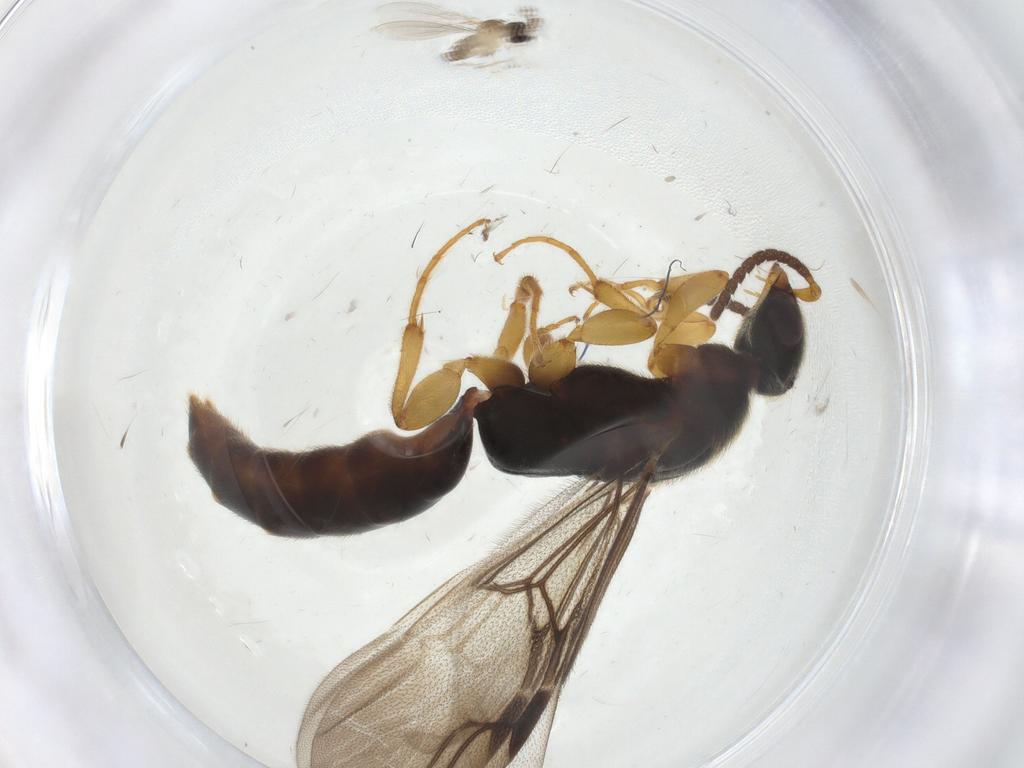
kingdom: Animalia
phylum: Arthropoda
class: Insecta
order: Hymenoptera
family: Bethylidae
